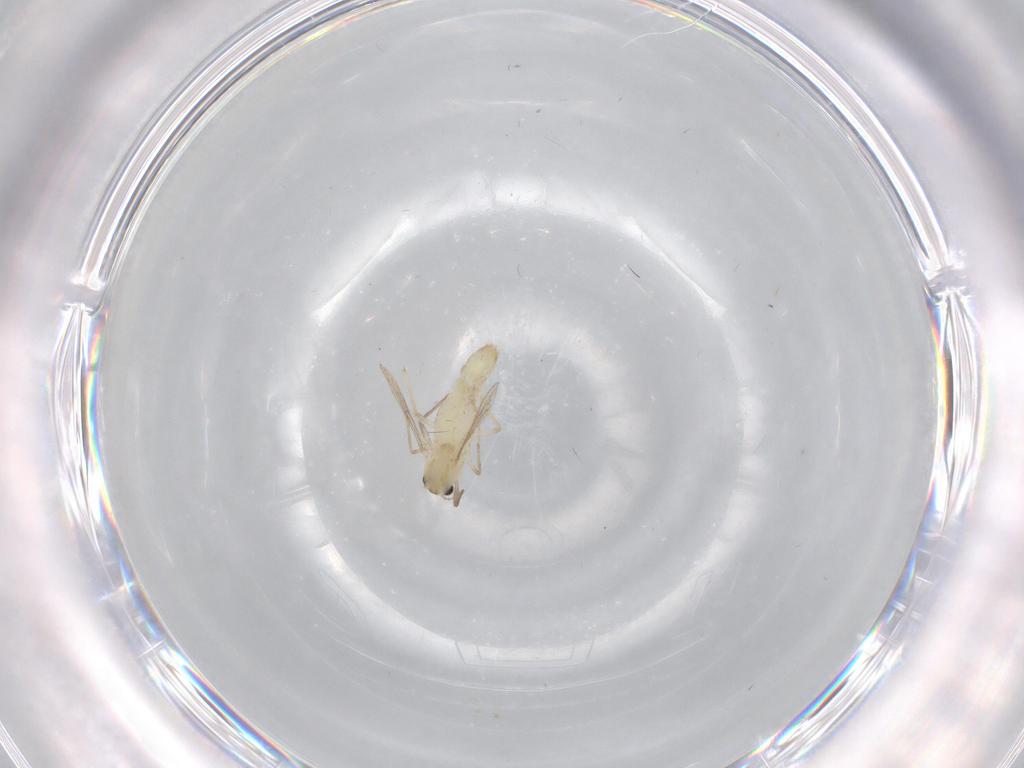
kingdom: Animalia
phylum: Arthropoda
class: Insecta
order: Diptera
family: Chironomidae
